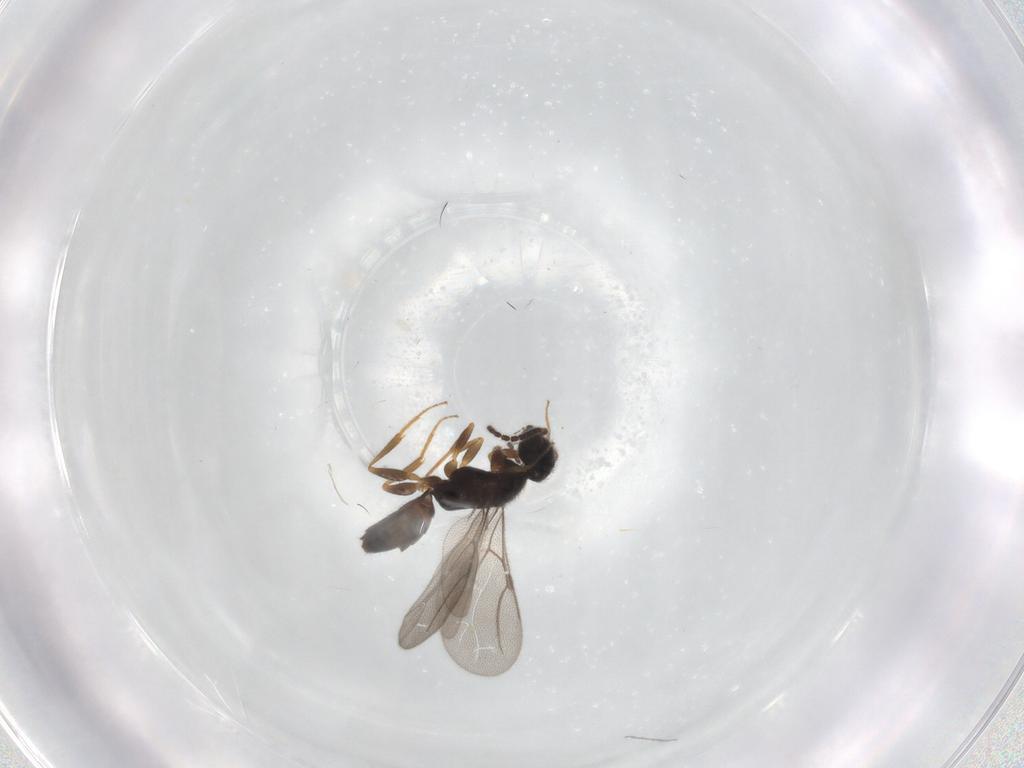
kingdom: Animalia
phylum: Arthropoda
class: Insecta
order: Hymenoptera
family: Bethylidae
